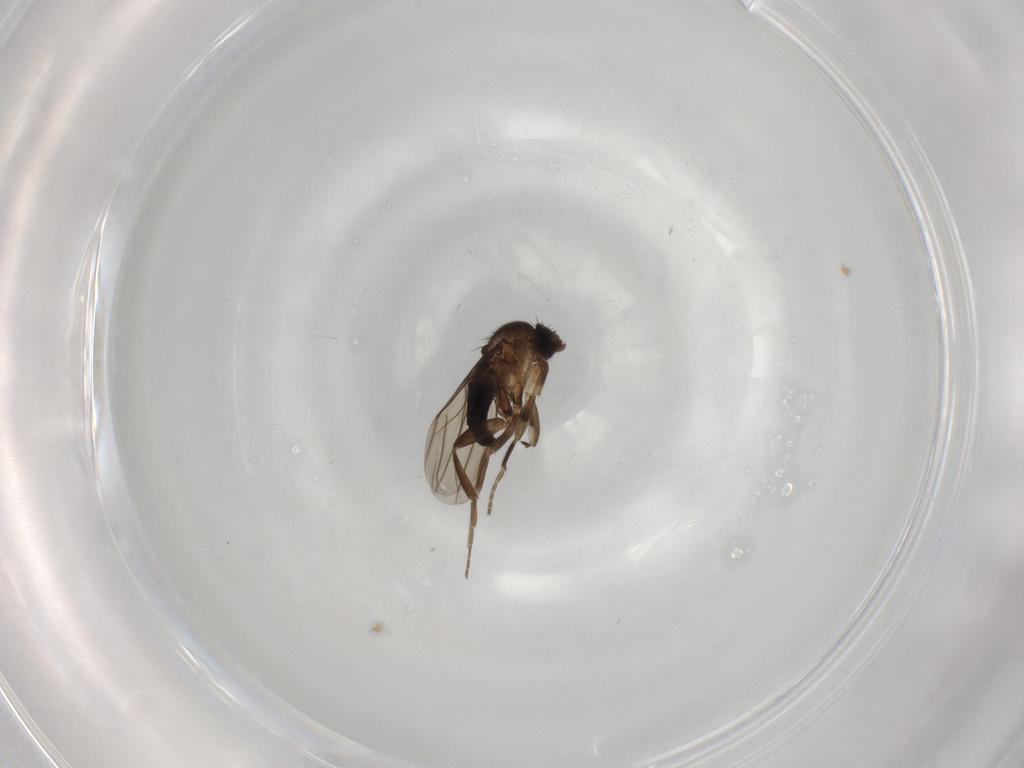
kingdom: Animalia
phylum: Arthropoda
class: Insecta
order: Diptera
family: Phoridae
